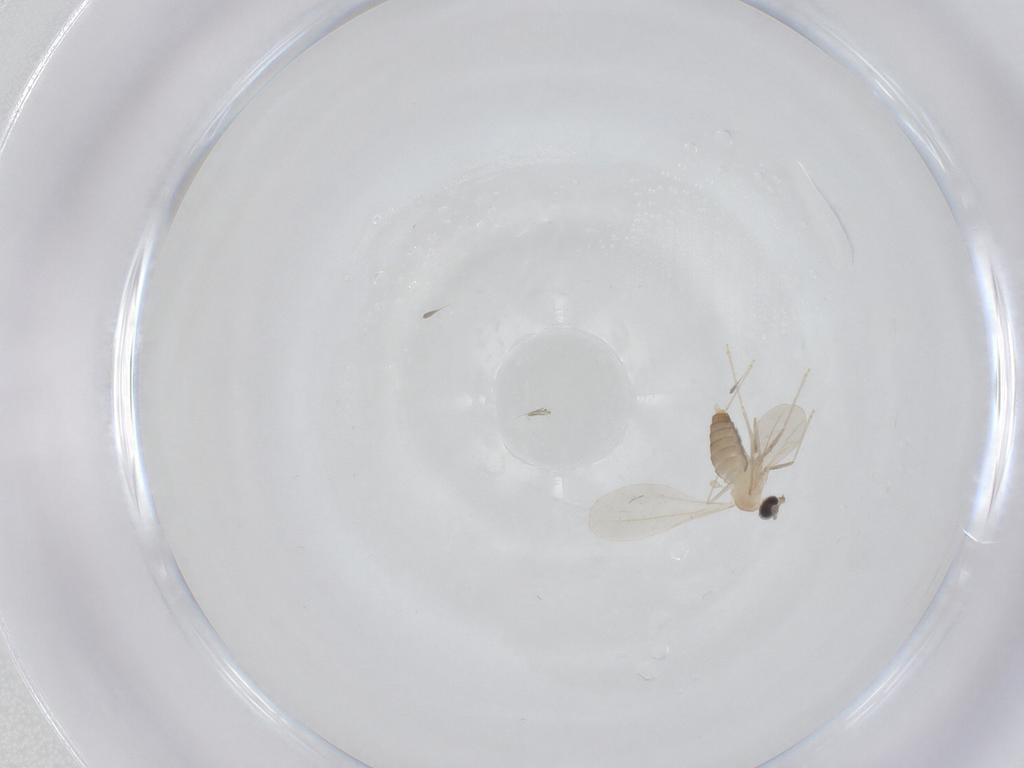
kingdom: Animalia
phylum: Arthropoda
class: Insecta
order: Diptera
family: Cecidomyiidae
